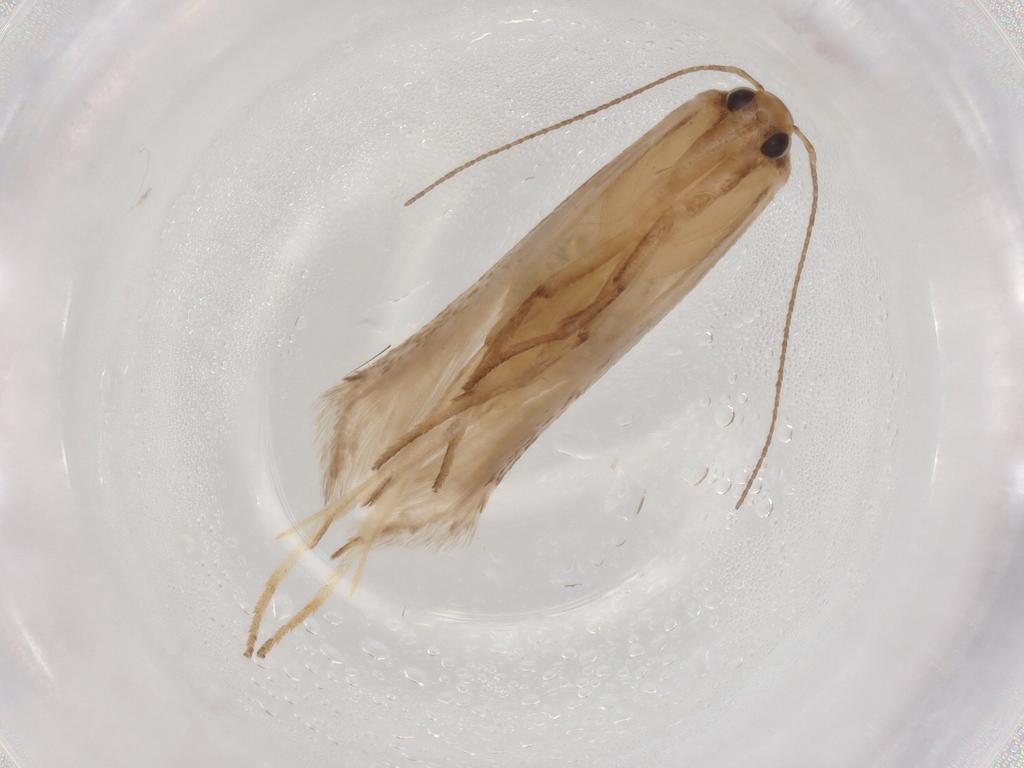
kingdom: Animalia
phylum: Arthropoda
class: Insecta
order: Lepidoptera
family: Gelechiidae
